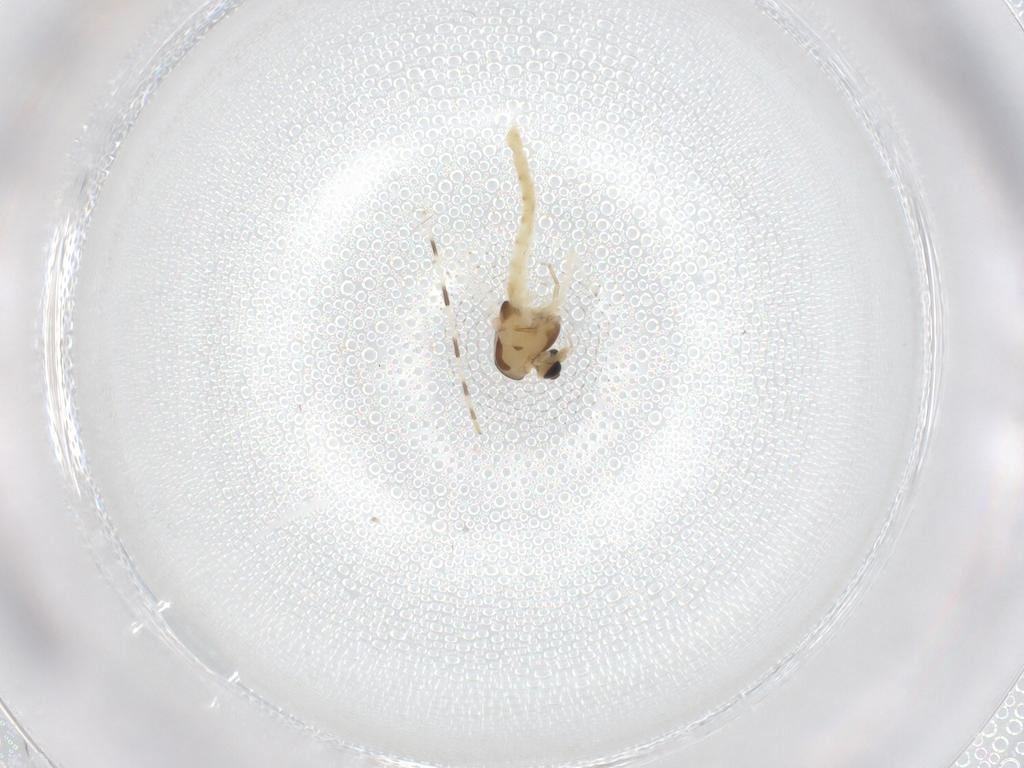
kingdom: Animalia
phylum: Arthropoda
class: Insecta
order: Diptera
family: Chironomidae
